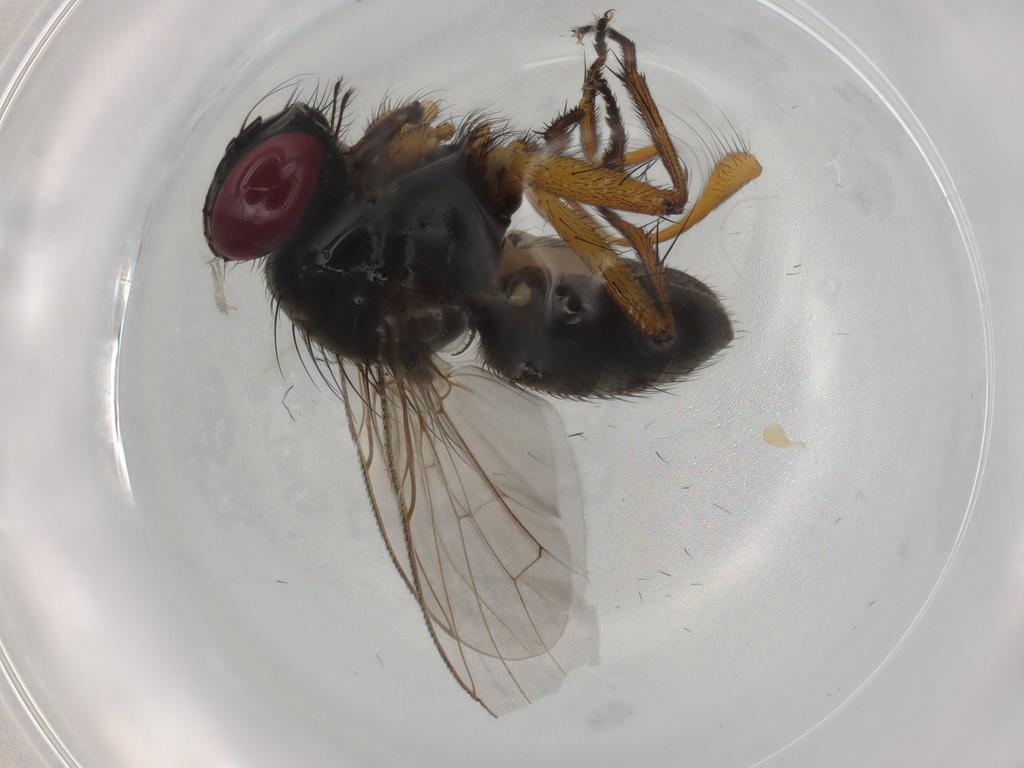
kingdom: Animalia
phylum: Arthropoda
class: Insecta
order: Diptera
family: Muscidae
